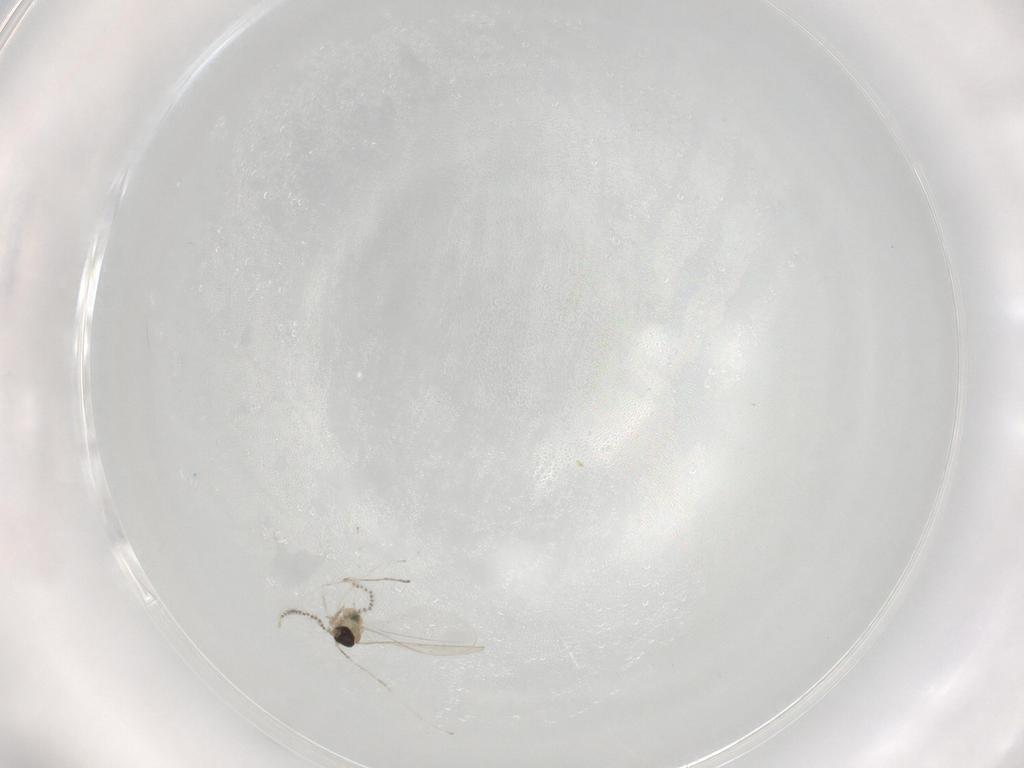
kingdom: Animalia
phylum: Arthropoda
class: Insecta
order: Diptera
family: Cecidomyiidae
